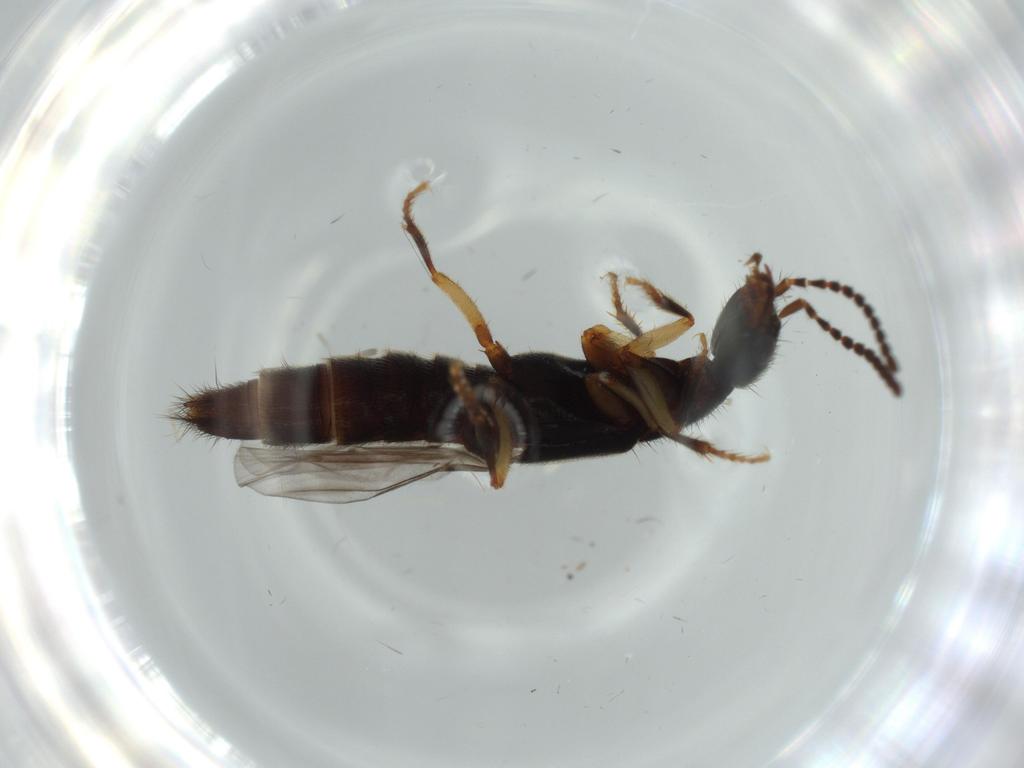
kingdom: Animalia
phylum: Arthropoda
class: Insecta
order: Coleoptera
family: Staphylinidae
